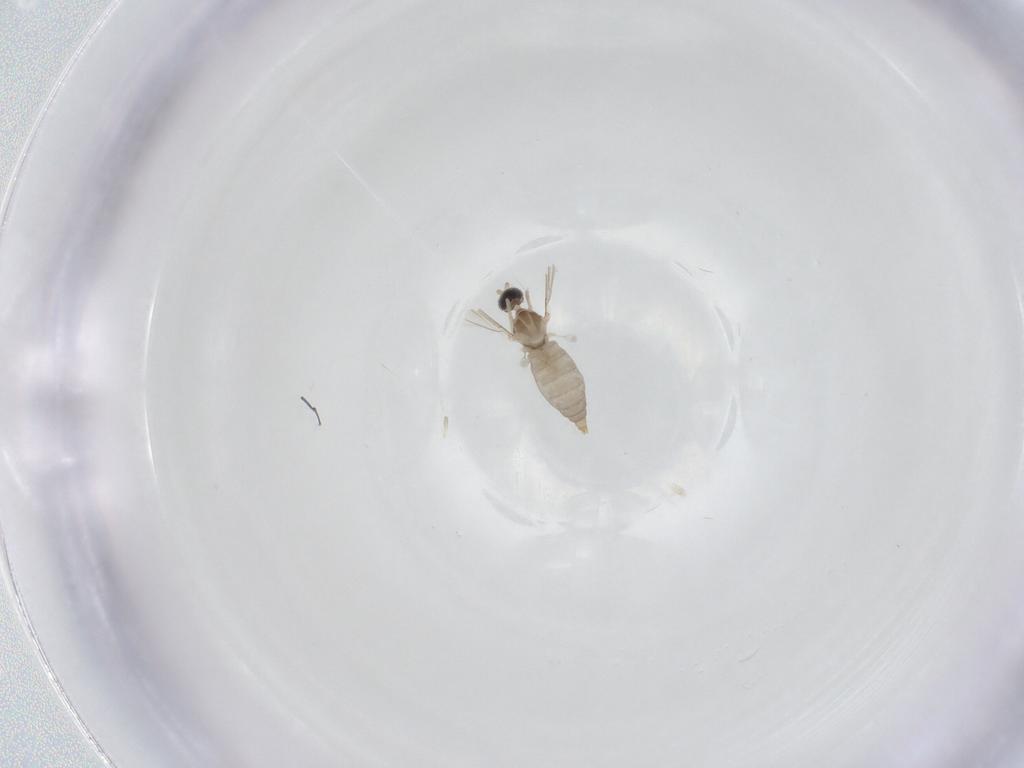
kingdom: Animalia
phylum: Arthropoda
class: Insecta
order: Diptera
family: Cecidomyiidae
